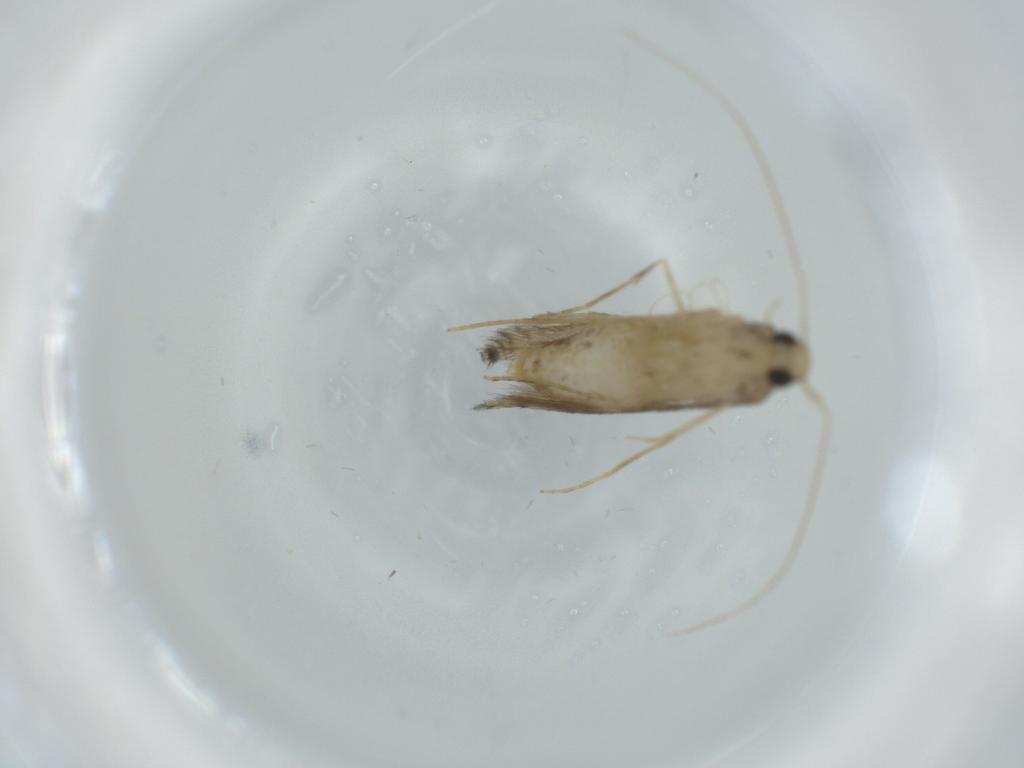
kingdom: Animalia
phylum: Arthropoda
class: Insecta
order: Lepidoptera
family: Gracillariidae
